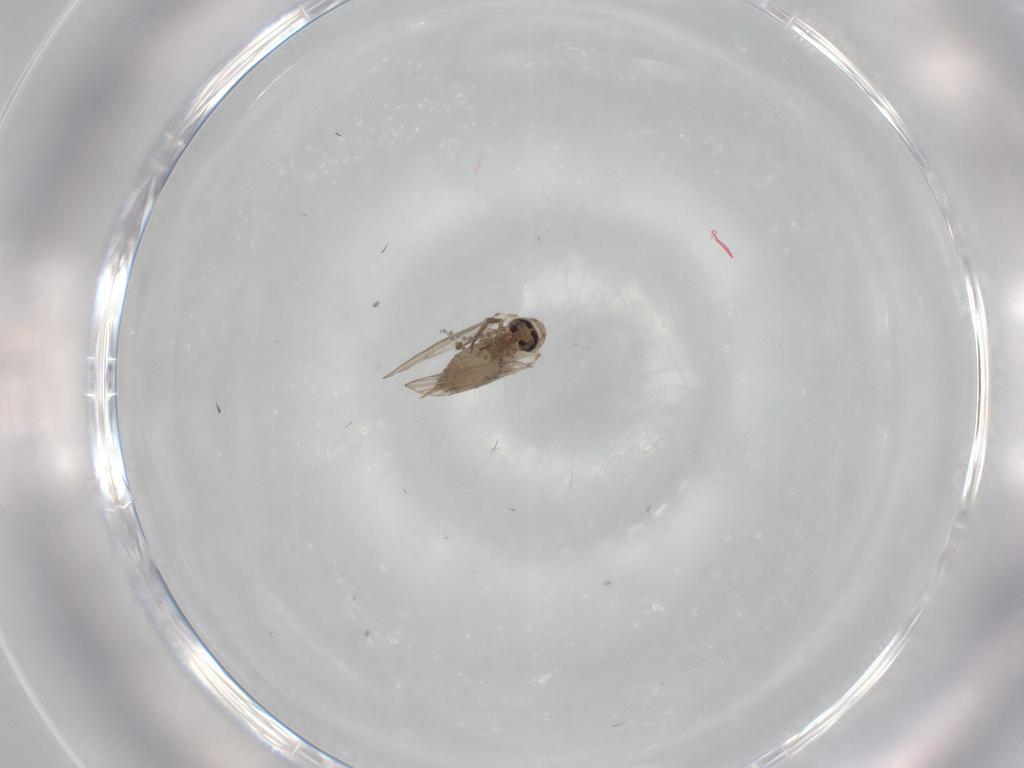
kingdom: Animalia
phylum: Arthropoda
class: Insecta
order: Diptera
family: Psychodidae
